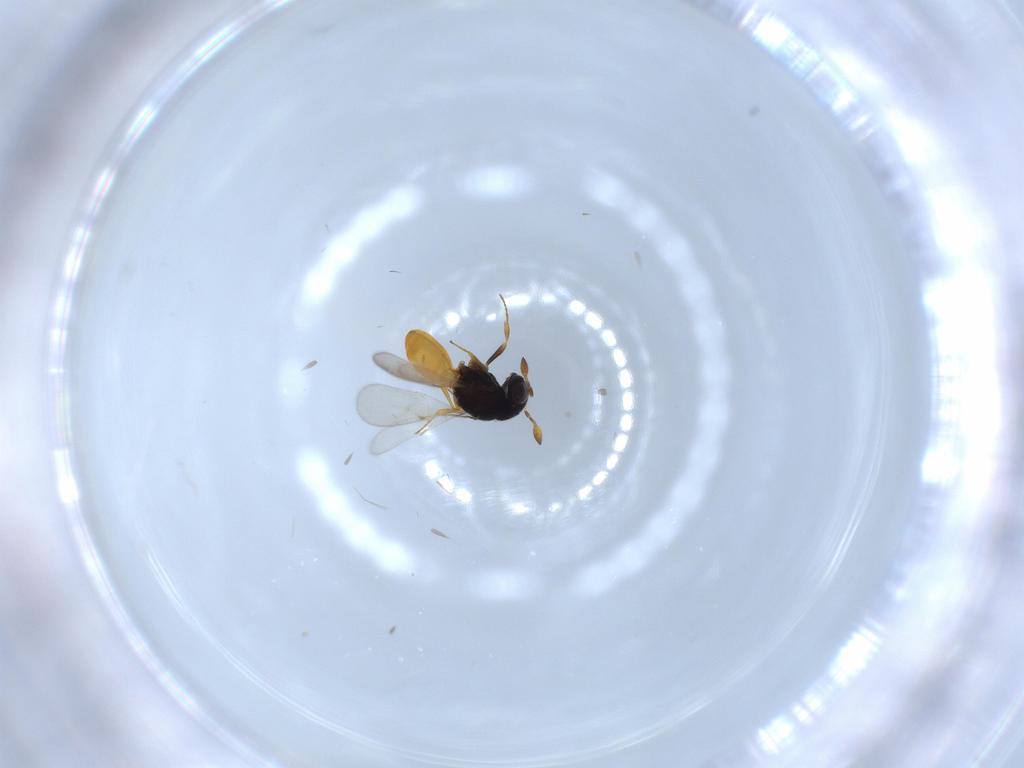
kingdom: Animalia
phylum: Arthropoda
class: Insecta
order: Hymenoptera
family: Scelionidae
